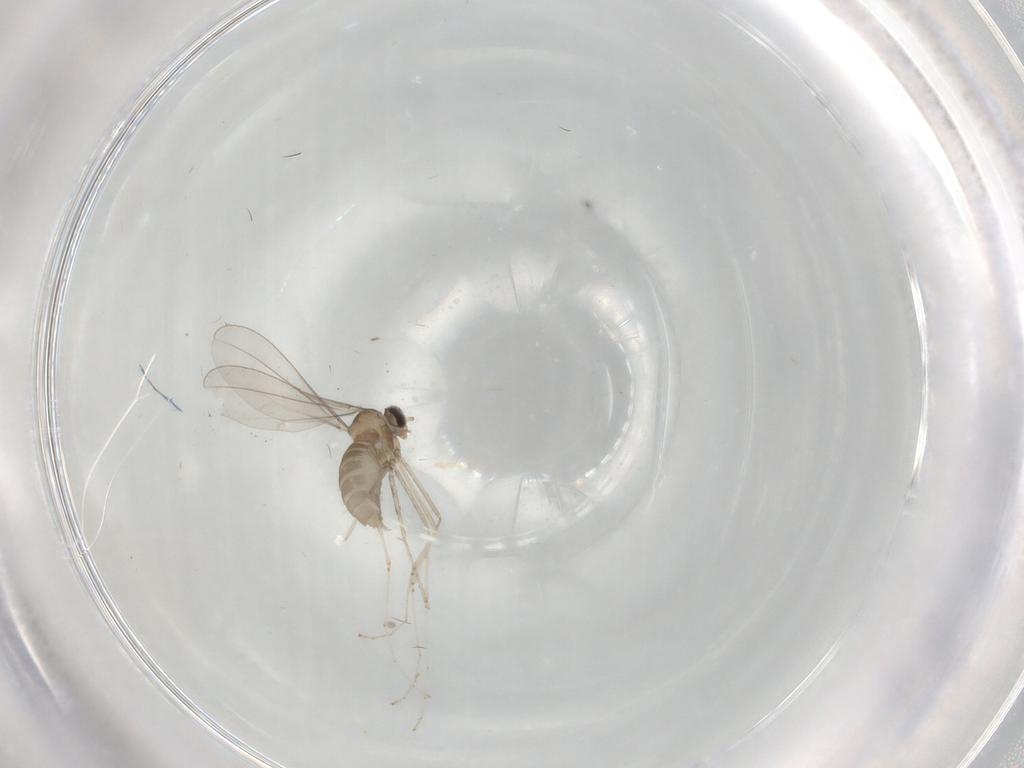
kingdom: Animalia
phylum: Arthropoda
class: Insecta
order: Diptera
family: Cecidomyiidae
